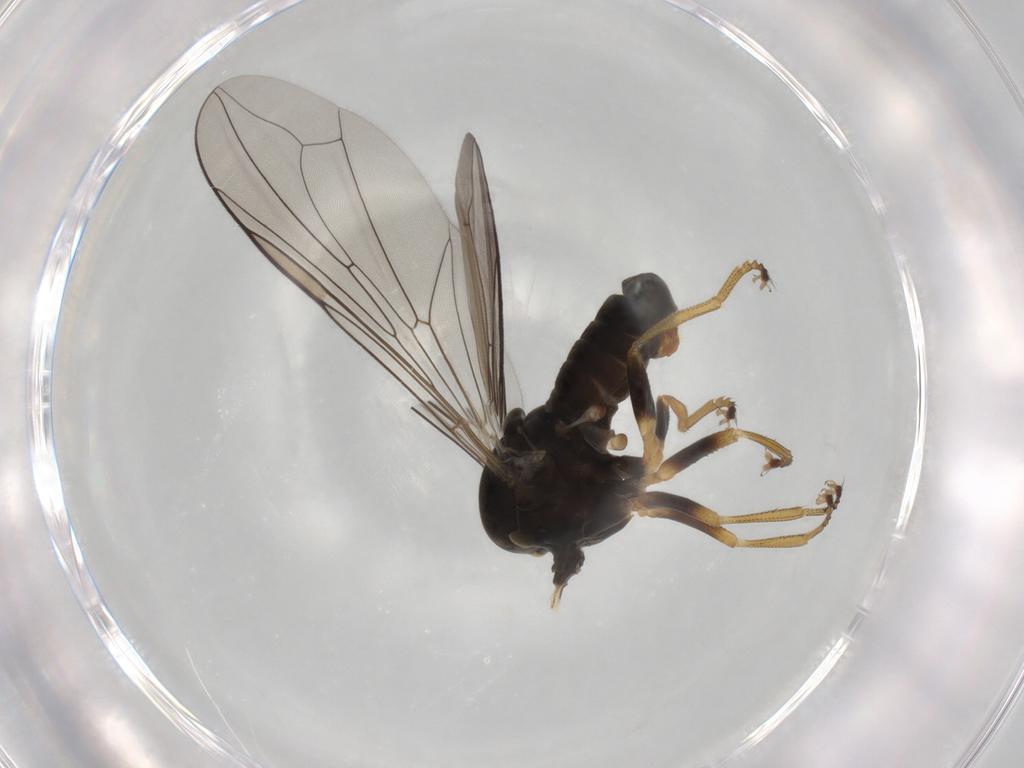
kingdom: Animalia
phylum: Arthropoda
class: Insecta
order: Diptera
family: Pipunculidae
